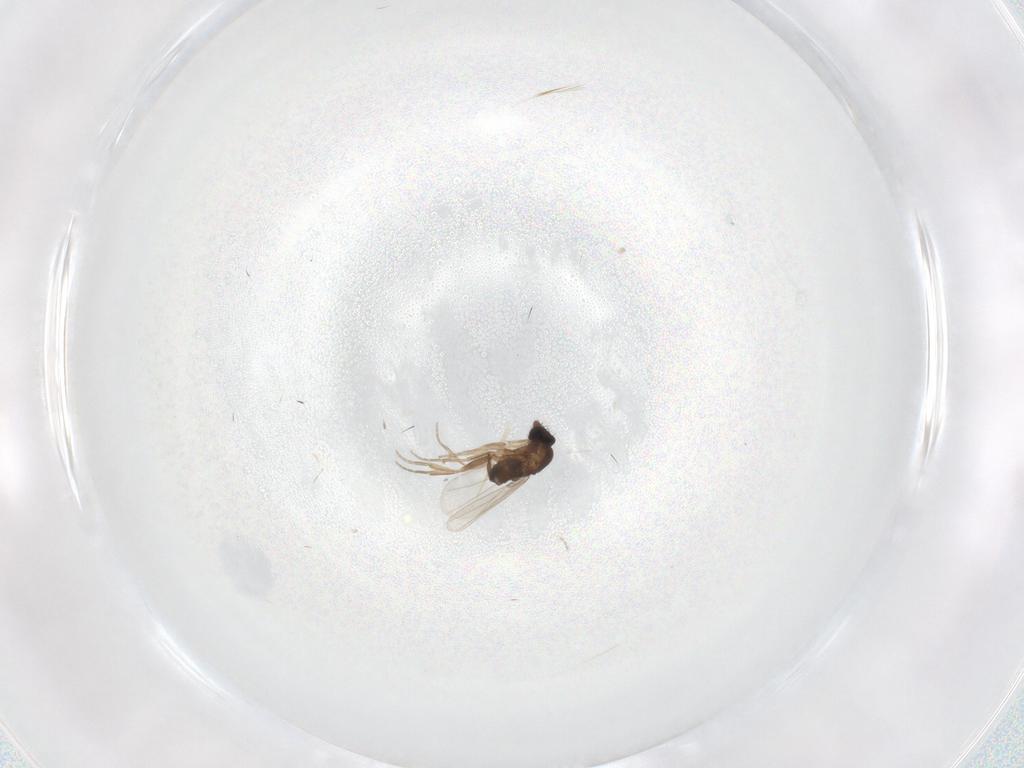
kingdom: Animalia
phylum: Arthropoda
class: Insecta
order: Diptera
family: Phoridae
